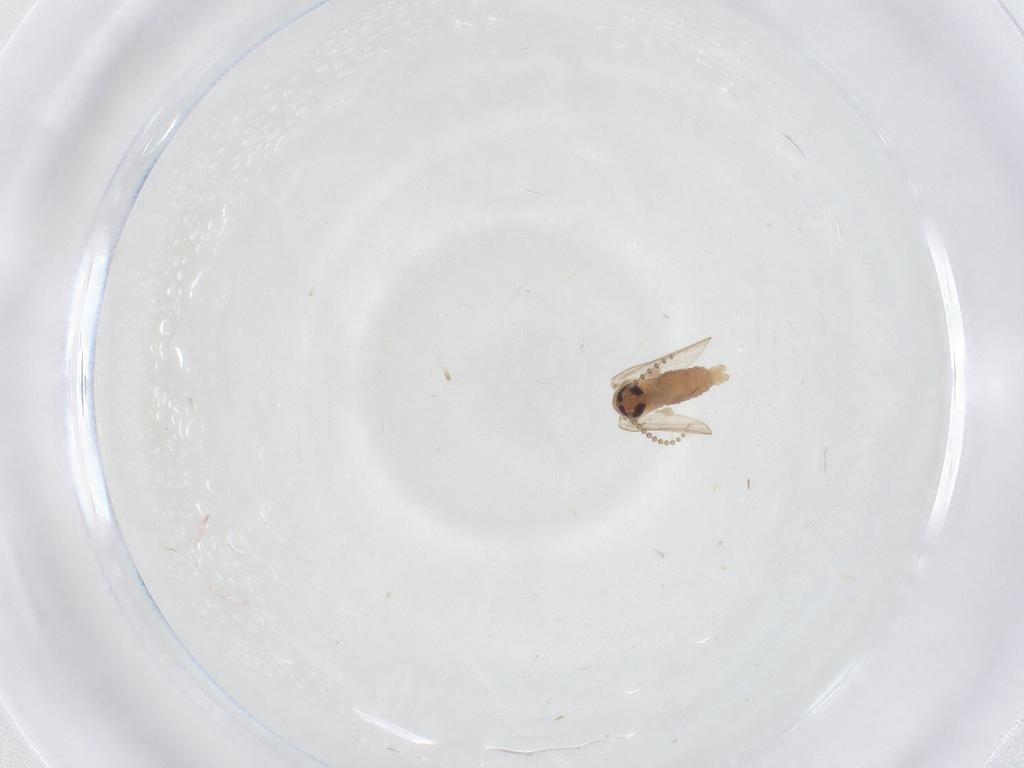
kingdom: Animalia
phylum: Arthropoda
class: Insecta
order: Diptera
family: Psychodidae
